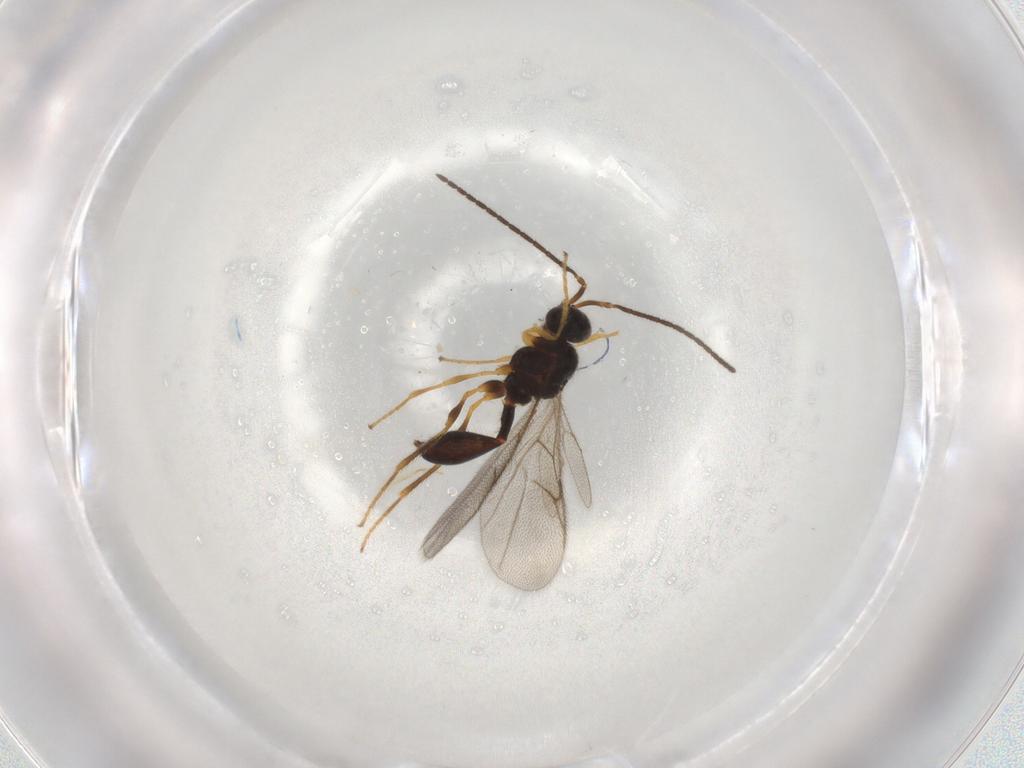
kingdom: Animalia
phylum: Arthropoda
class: Insecta
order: Hymenoptera
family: Diapriidae
